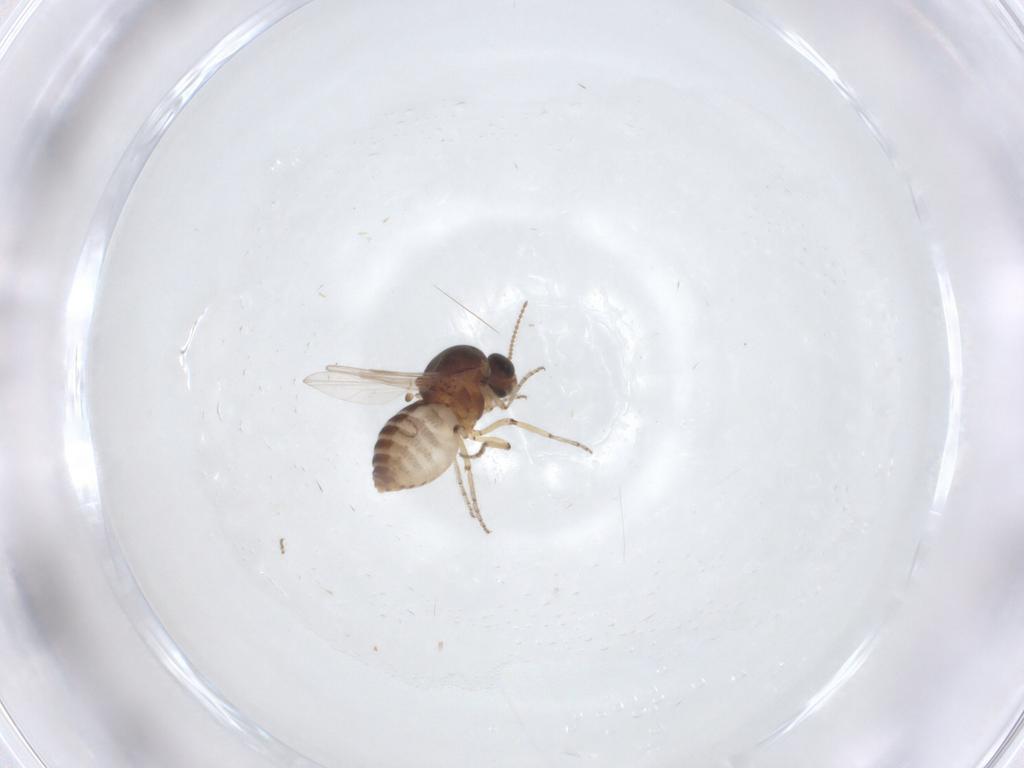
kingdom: Animalia
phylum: Arthropoda
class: Insecta
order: Diptera
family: Ceratopogonidae
